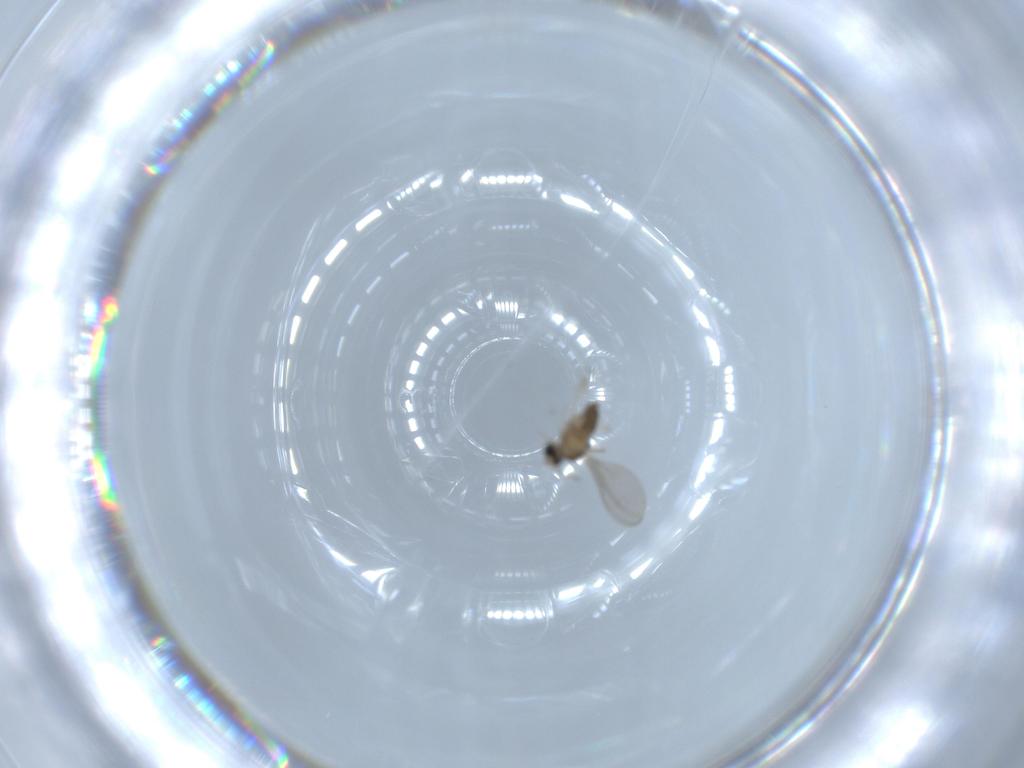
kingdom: Animalia
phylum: Arthropoda
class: Insecta
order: Diptera
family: Cecidomyiidae
